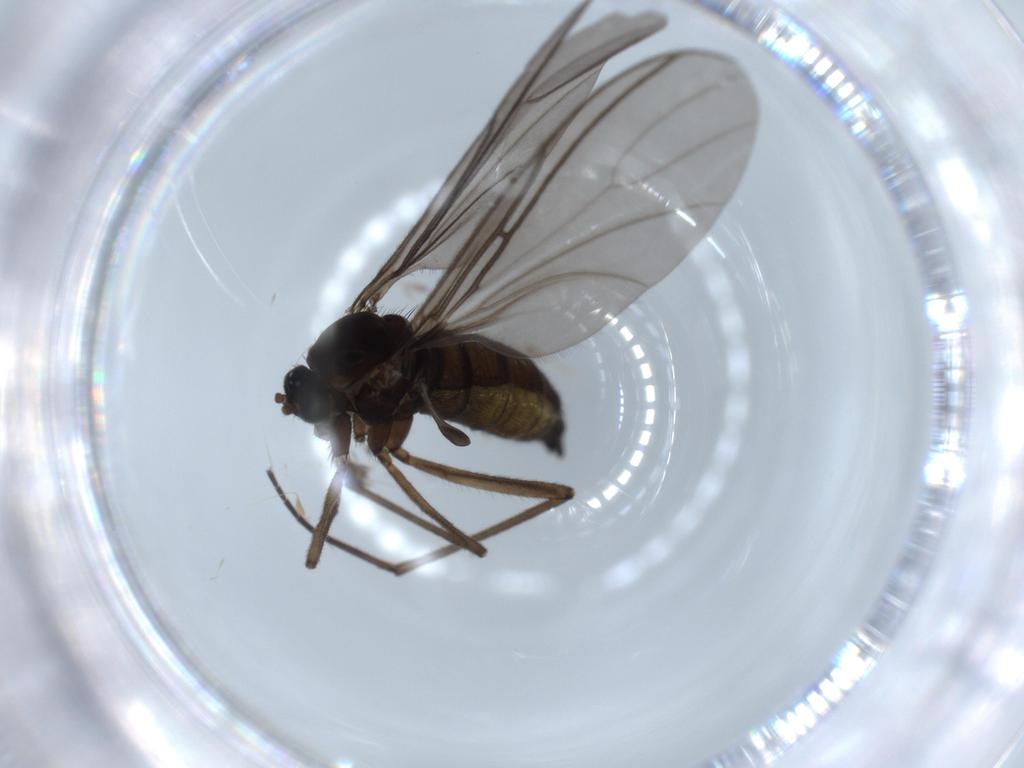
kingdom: Animalia
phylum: Arthropoda
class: Insecta
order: Diptera
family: Sciaridae
